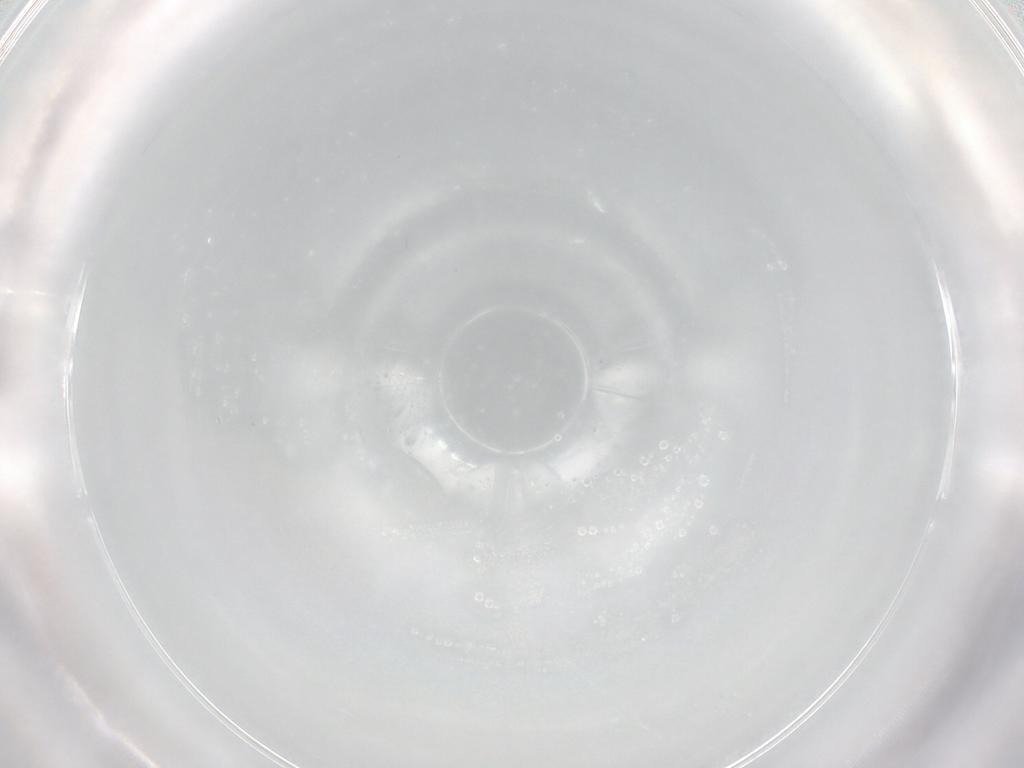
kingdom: Animalia
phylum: Arthropoda
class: Insecta
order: Diptera
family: Syrphidae
